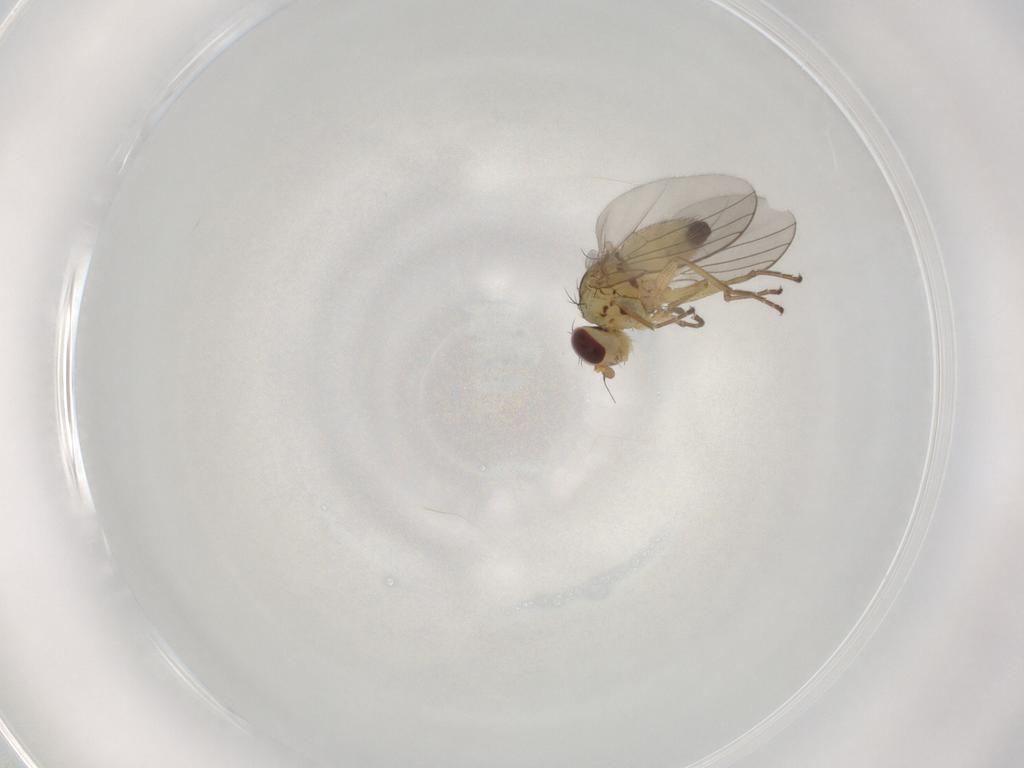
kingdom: Animalia
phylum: Arthropoda
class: Insecta
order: Diptera
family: Agromyzidae
